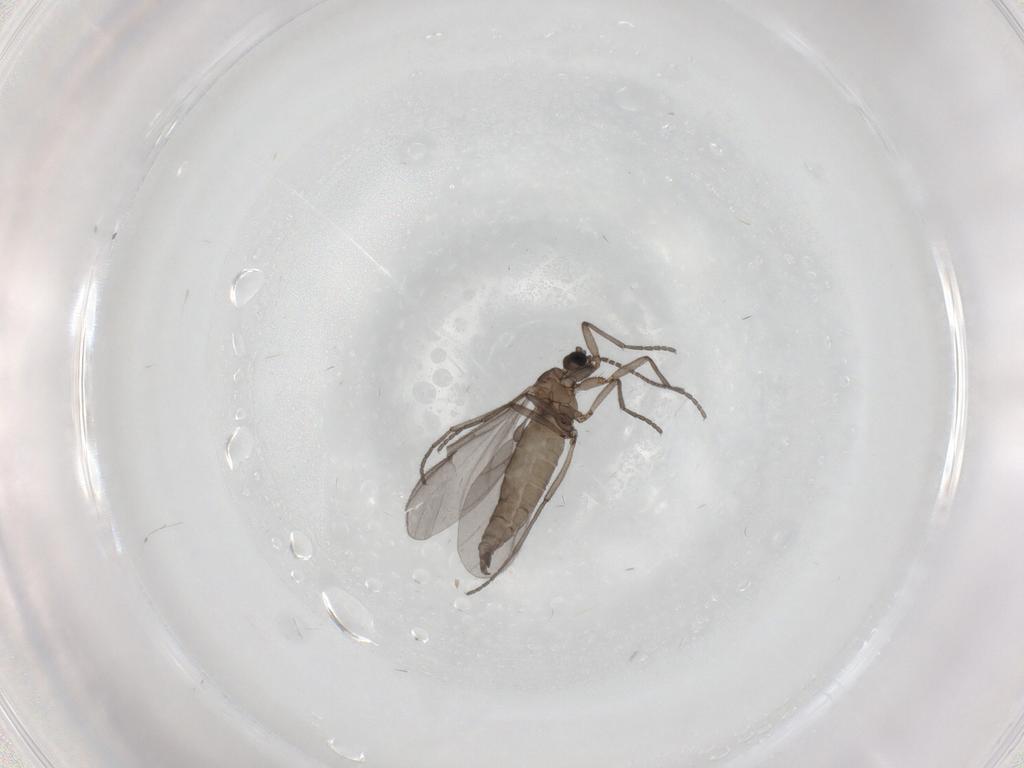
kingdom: Animalia
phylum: Arthropoda
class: Insecta
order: Diptera
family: Sciaridae
